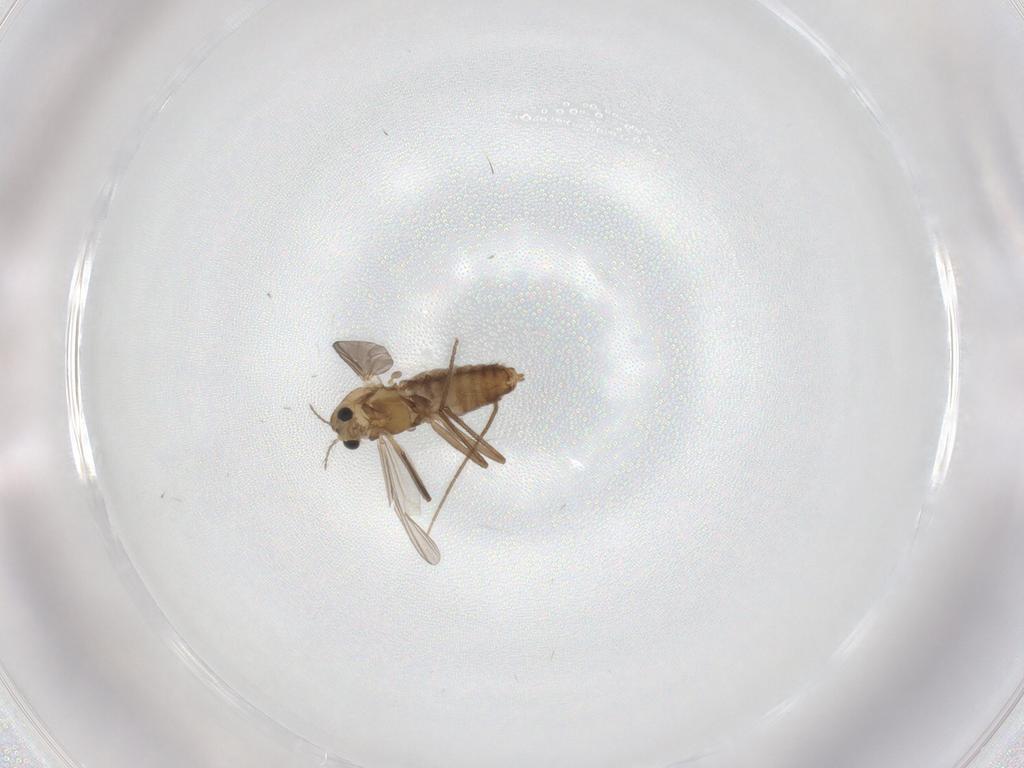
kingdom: Animalia
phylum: Arthropoda
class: Insecta
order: Diptera
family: Chironomidae
